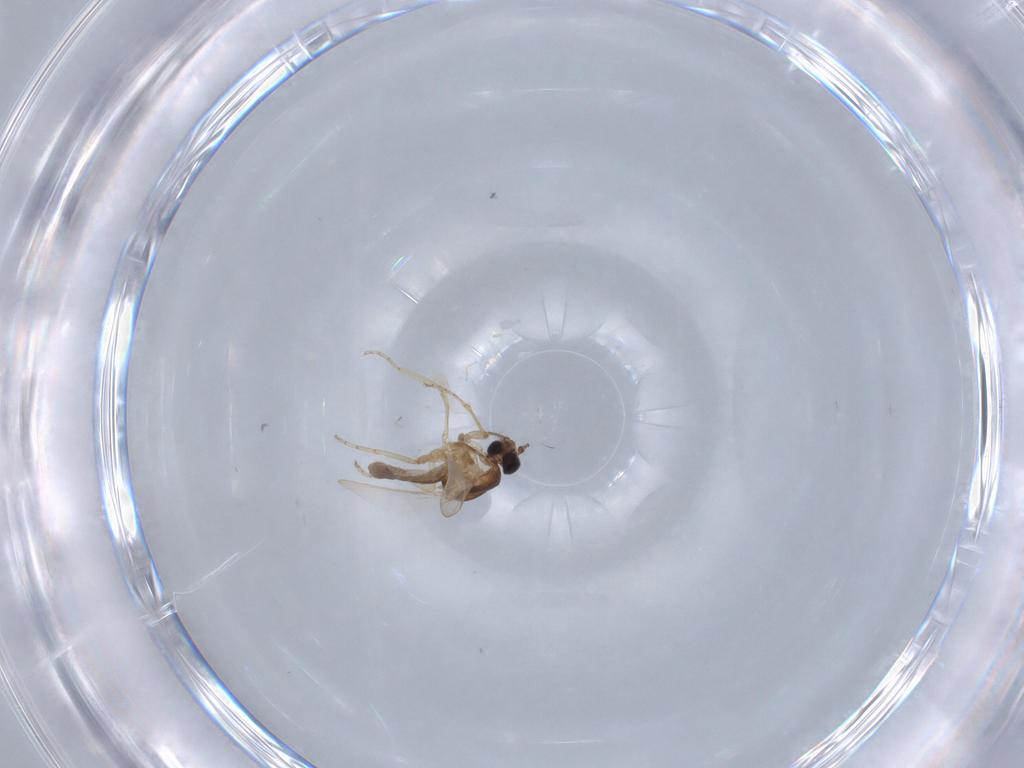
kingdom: Animalia
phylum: Arthropoda
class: Insecta
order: Diptera
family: Ceratopogonidae
